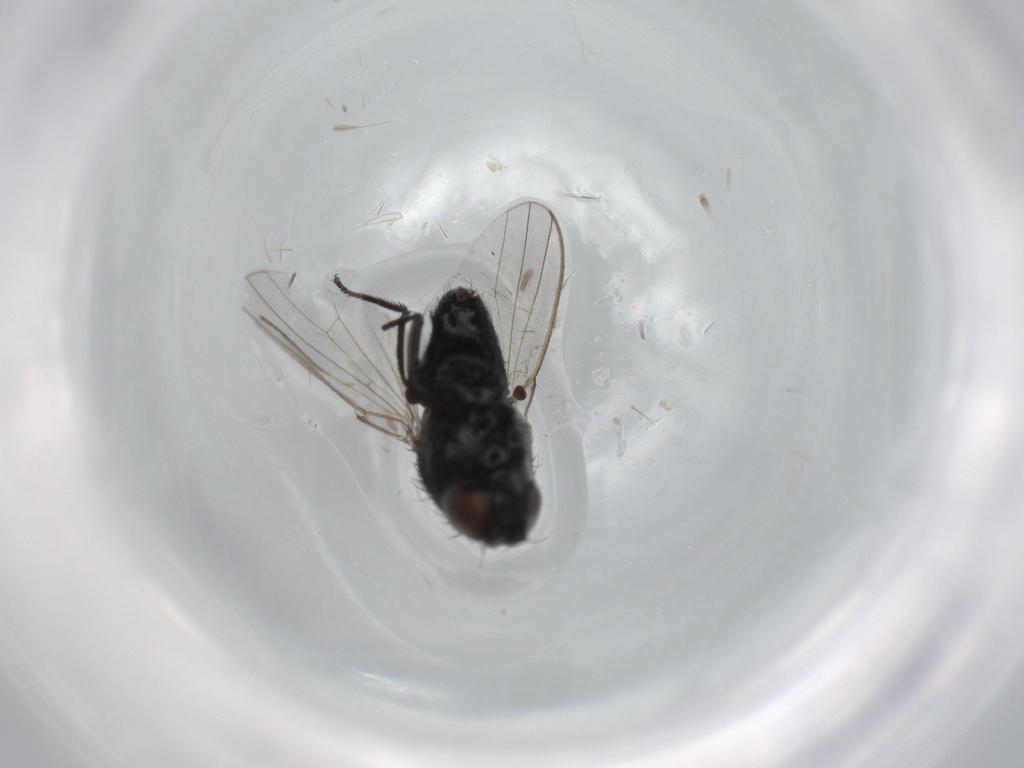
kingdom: Animalia
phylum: Arthropoda
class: Insecta
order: Diptera
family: Milichiidae
